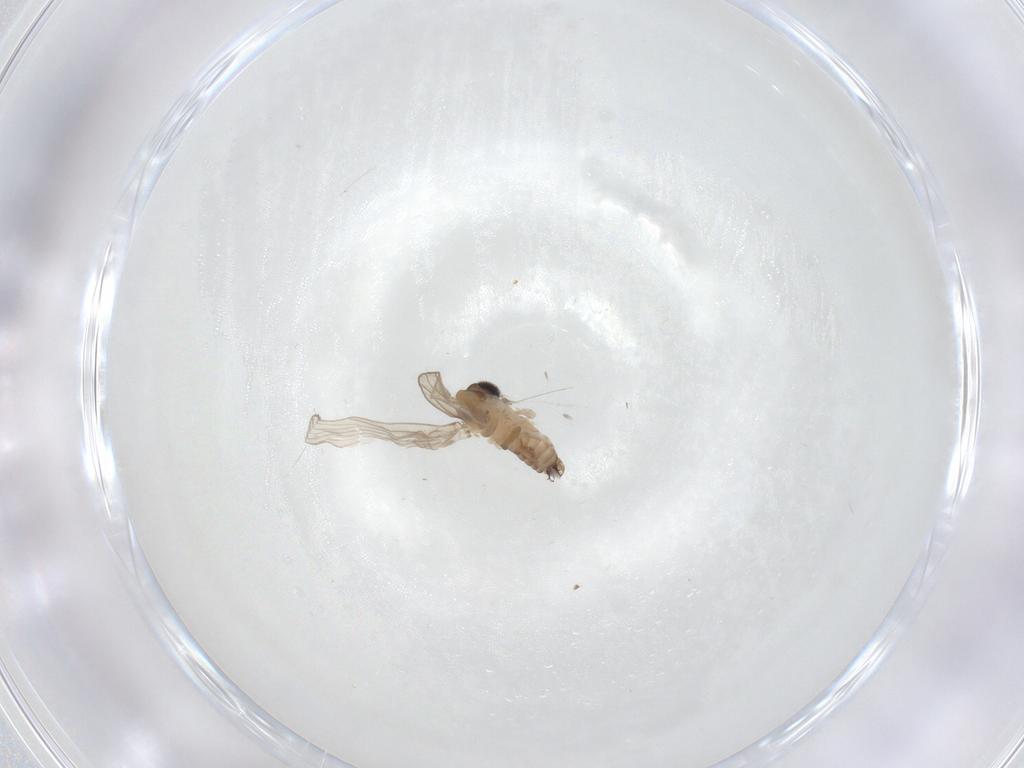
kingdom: Animalia
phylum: Arthropoda
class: Insecta
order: Diptera
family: Psychodidae
